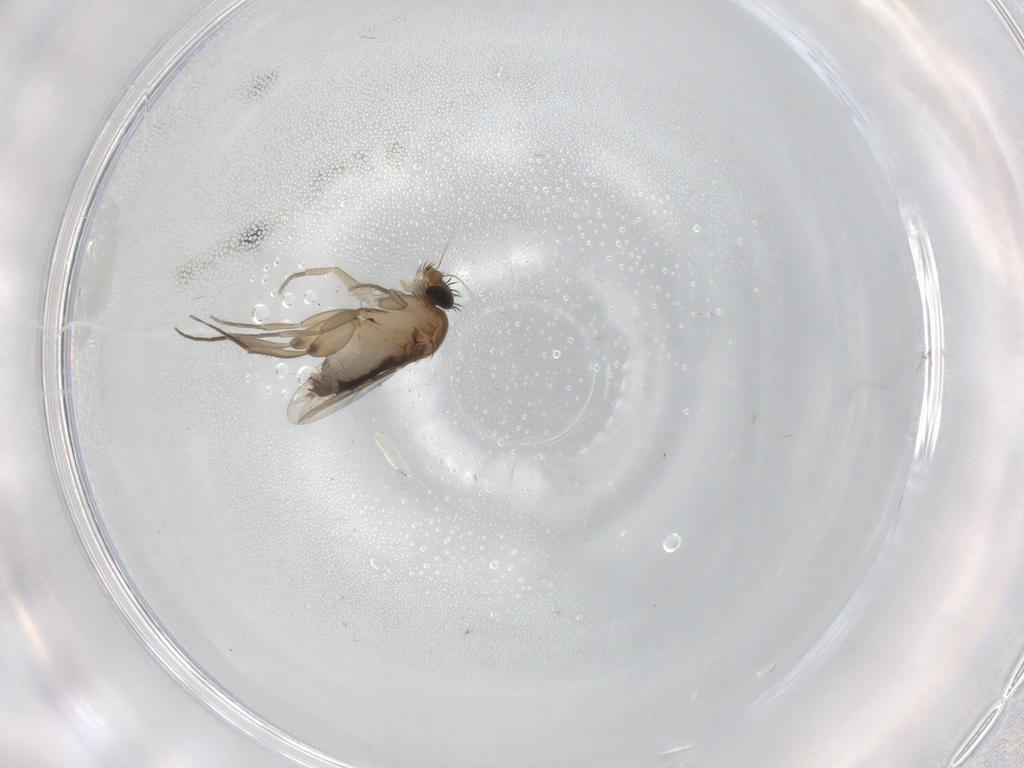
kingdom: Animalia
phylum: Arthropoda
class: Insecta
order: Diptera
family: Phoridae
